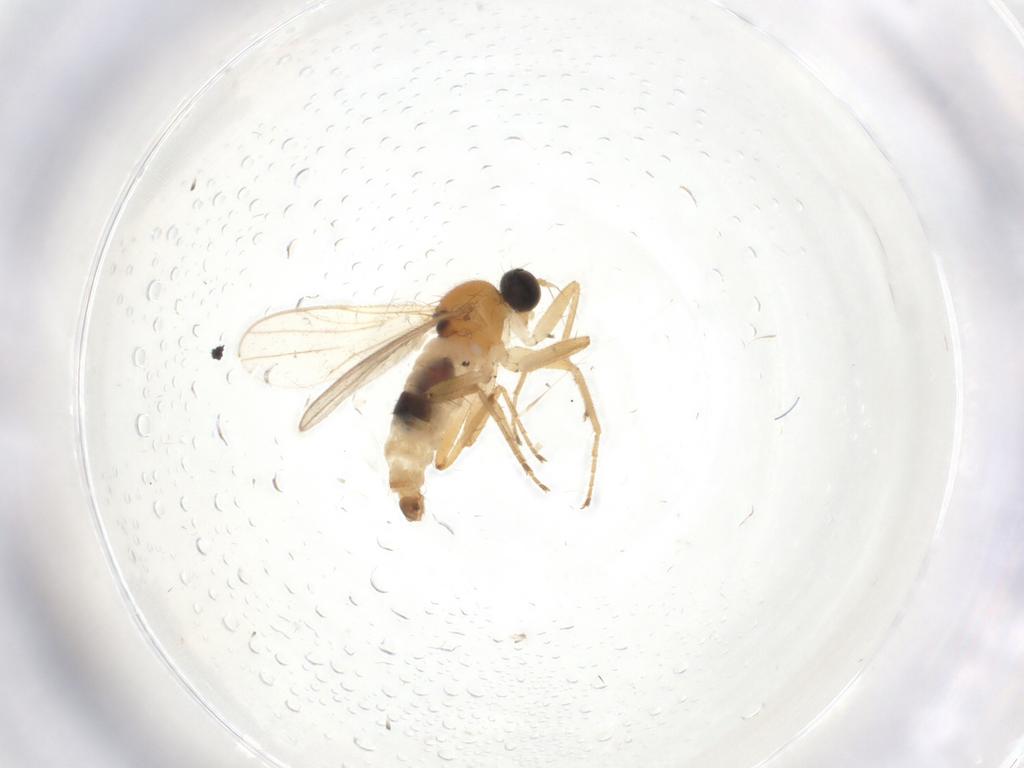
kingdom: Animalia
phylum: Arthropoda
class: Insecta
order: Diptera
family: Hybotidae
